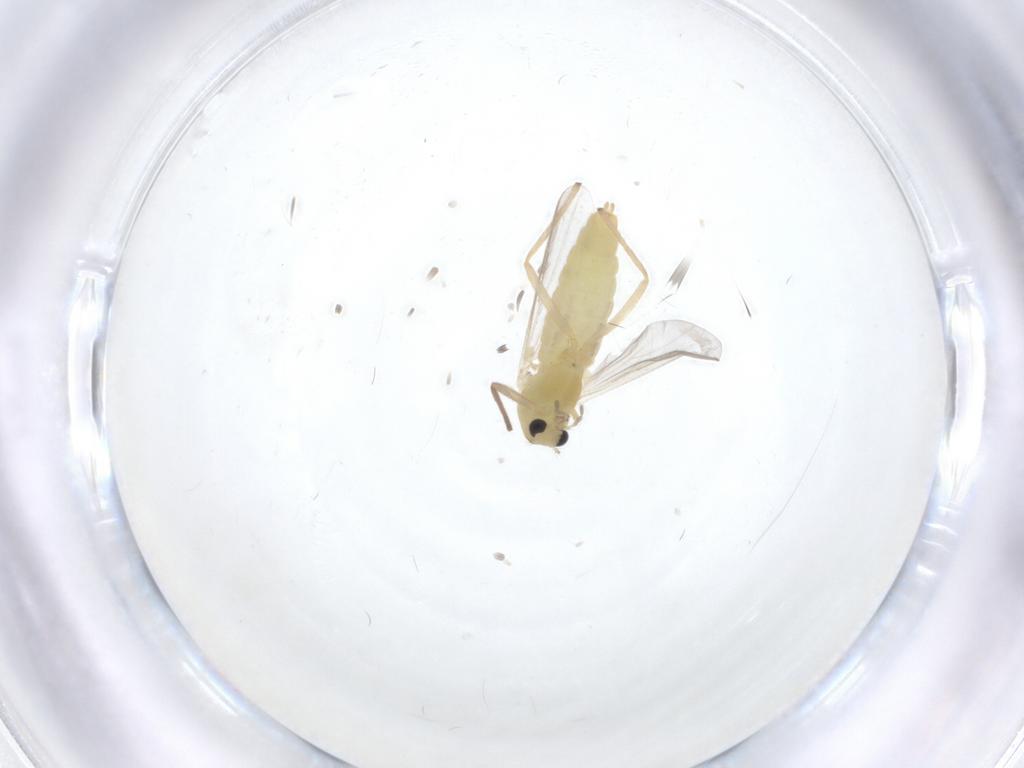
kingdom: Animalia
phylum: Arthropoda
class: Insecta
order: Diptera
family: Chironomidae
